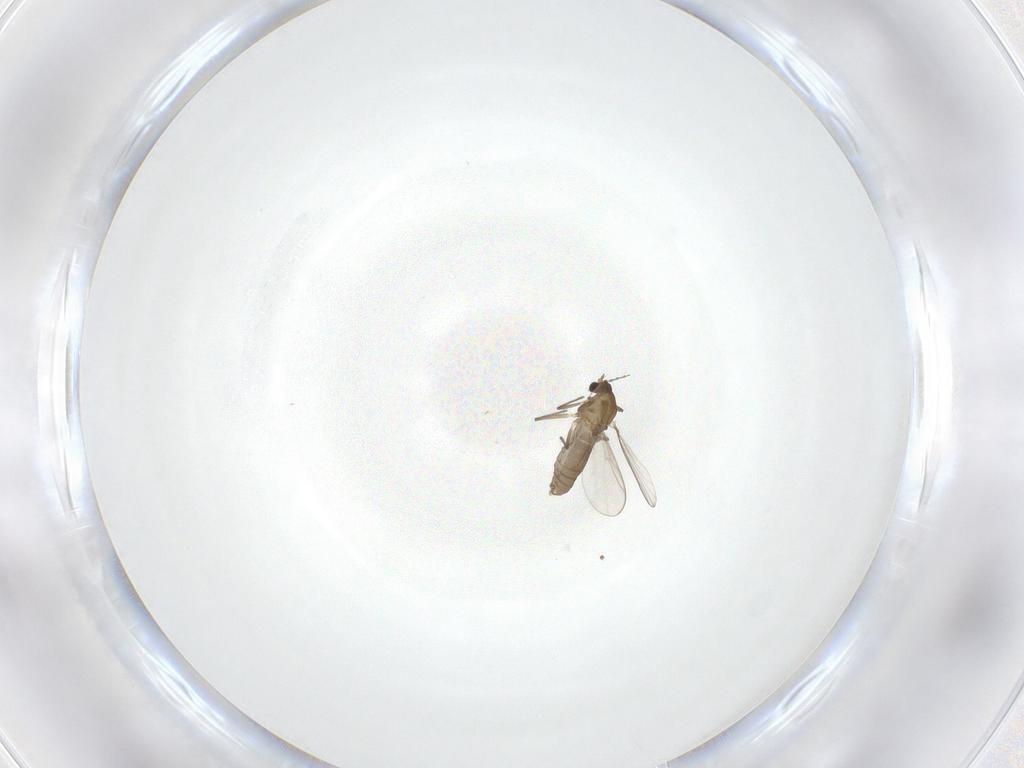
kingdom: Animalia
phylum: Arthropoda
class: Insecta
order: Diptera
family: Chironomidae
